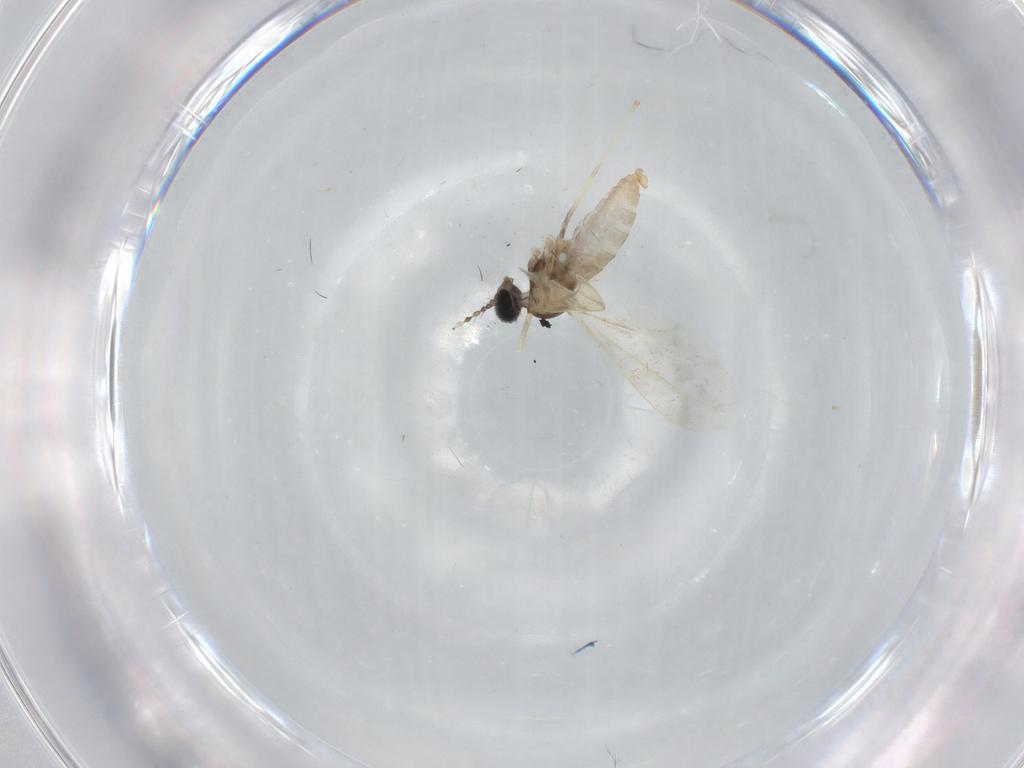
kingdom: Animalia
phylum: Arthropoda
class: Insecta
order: Diptera
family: Cecidomyiidae
